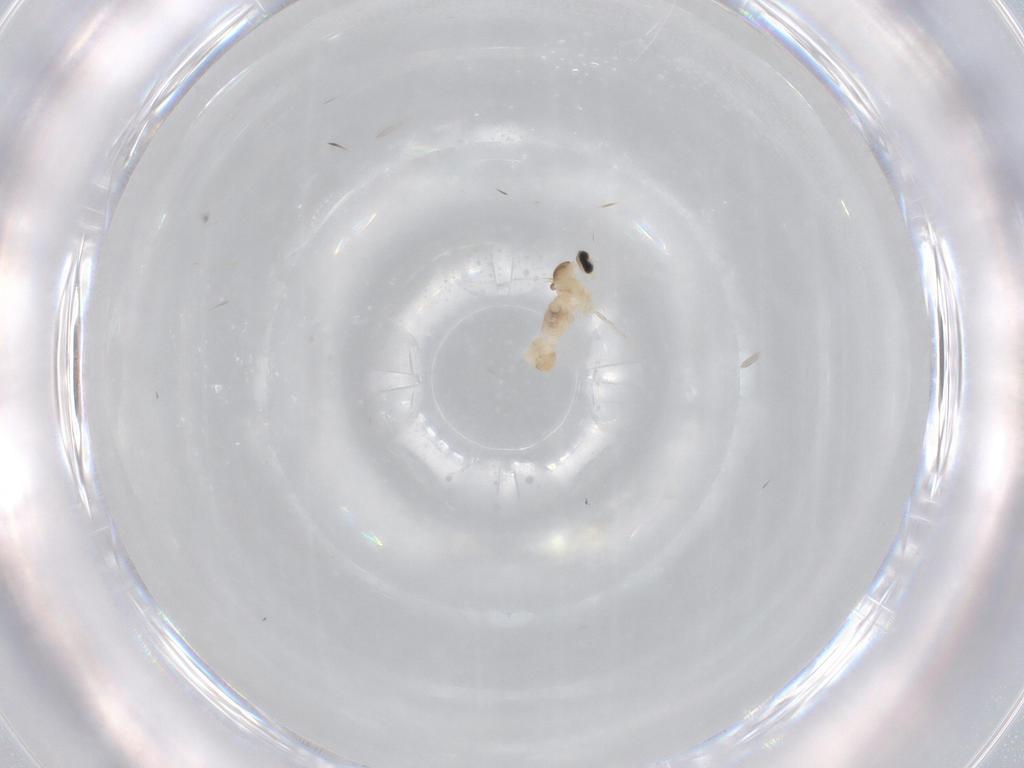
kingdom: Animalia
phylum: Arthropoda
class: Insecta
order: Diptera
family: Cecidomyiidae
